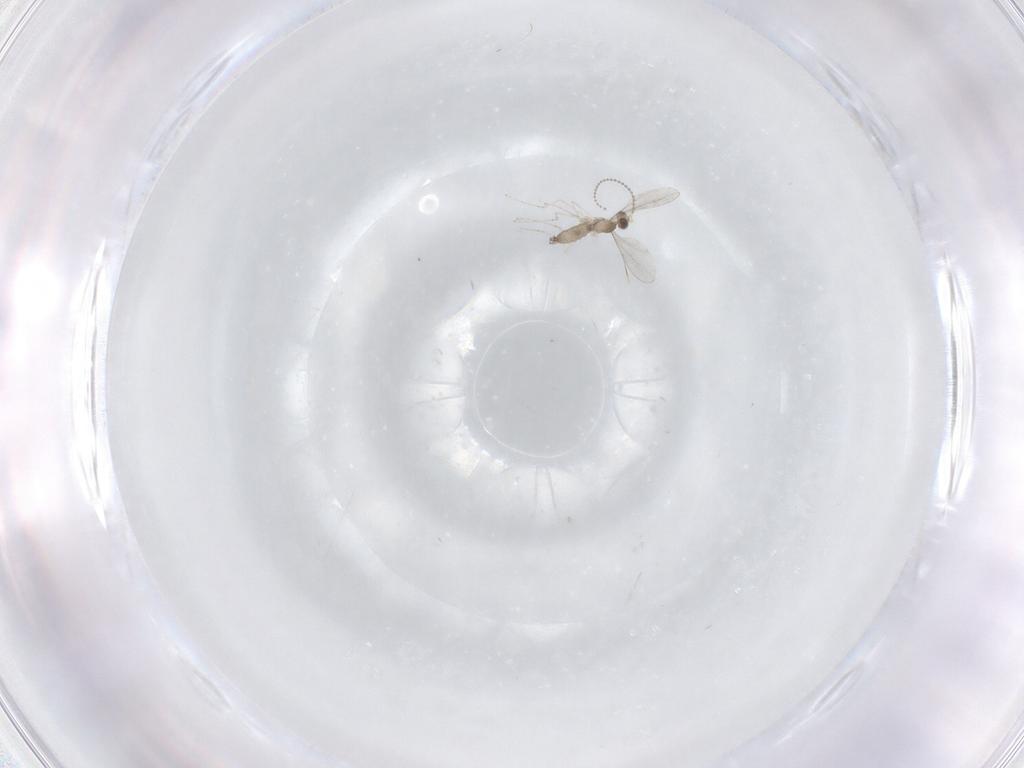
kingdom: Animalia
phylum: Arthropoda
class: Insecta
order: Diptera
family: Cecidomyiidae
